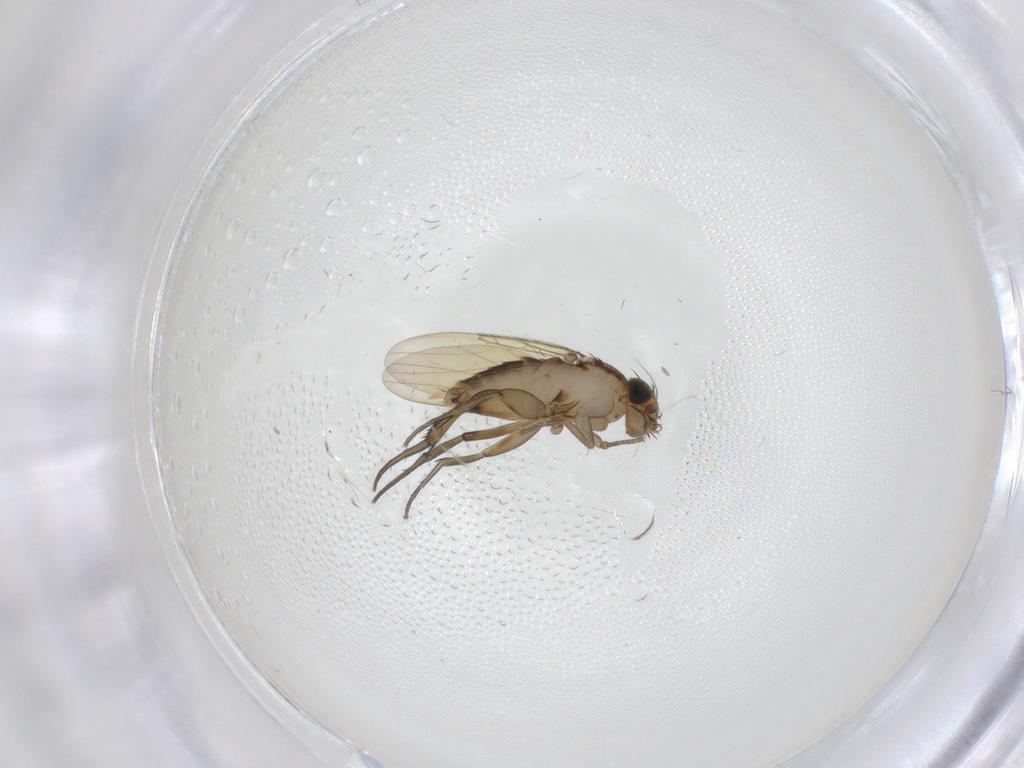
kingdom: Animalia
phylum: Arthropoda
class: Insecta
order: Diptera
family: Phoridae
